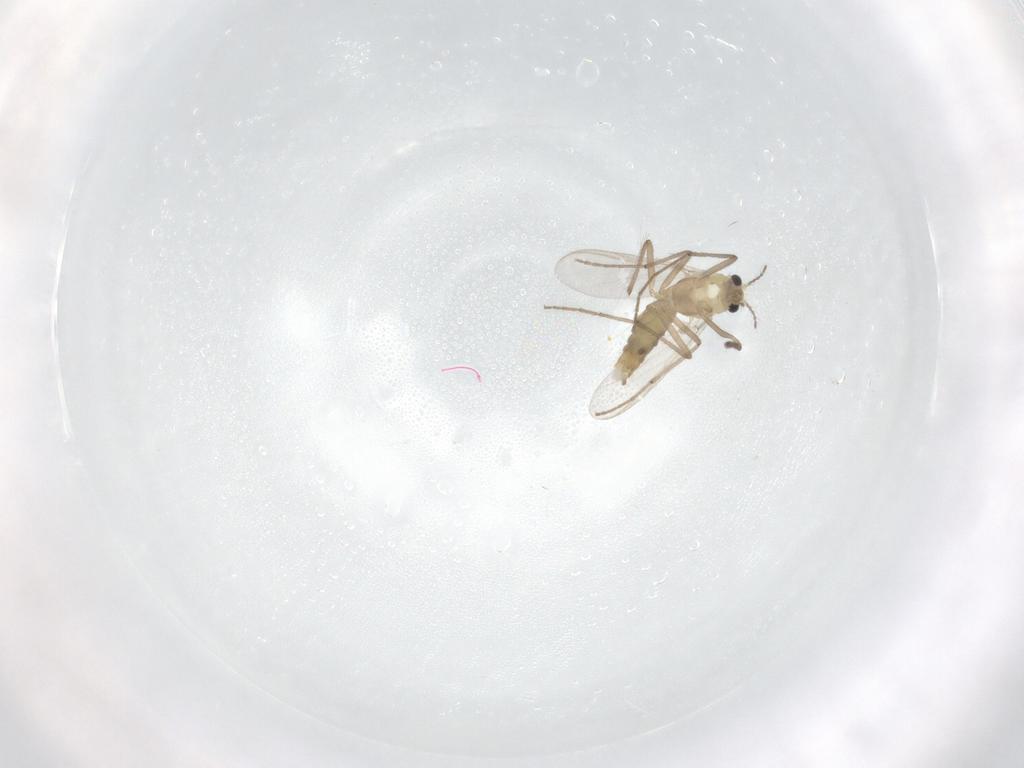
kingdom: Animalia
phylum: Arthropoda
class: Insecta
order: Diptera
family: Chironomidae
